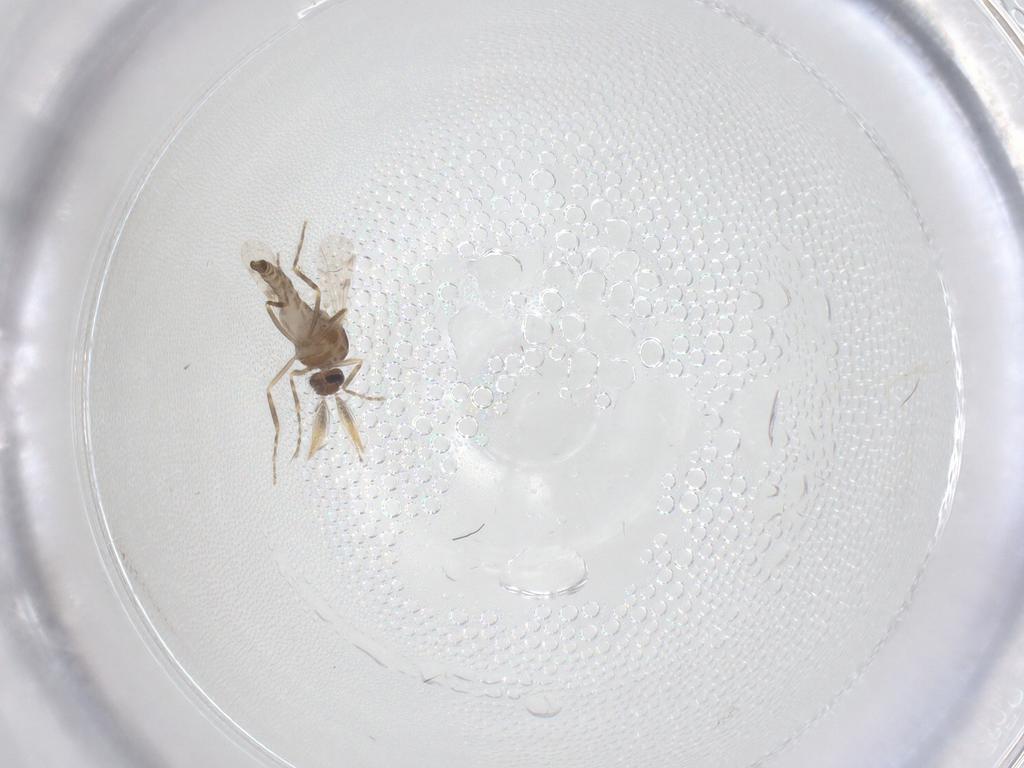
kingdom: Animalia
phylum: Arthropoda
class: Insecta
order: Diptera
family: Ceratopogonidae
